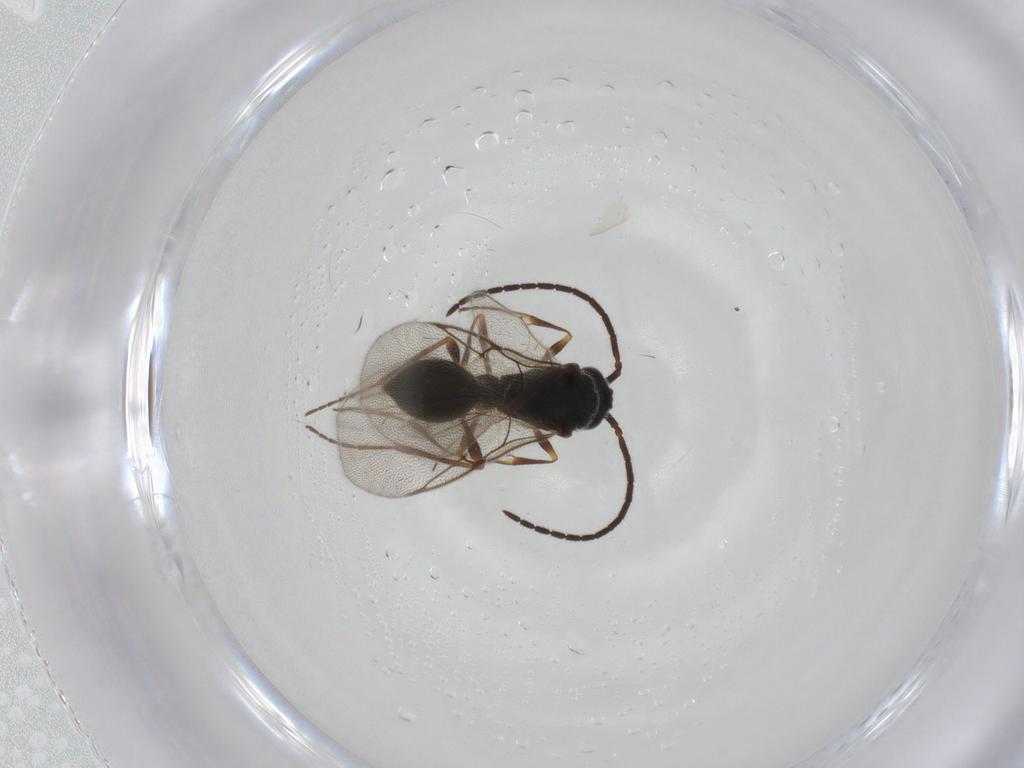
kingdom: Animalia
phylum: Arthropoda
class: Insecta
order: Hymenoptera
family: Diapriidae
